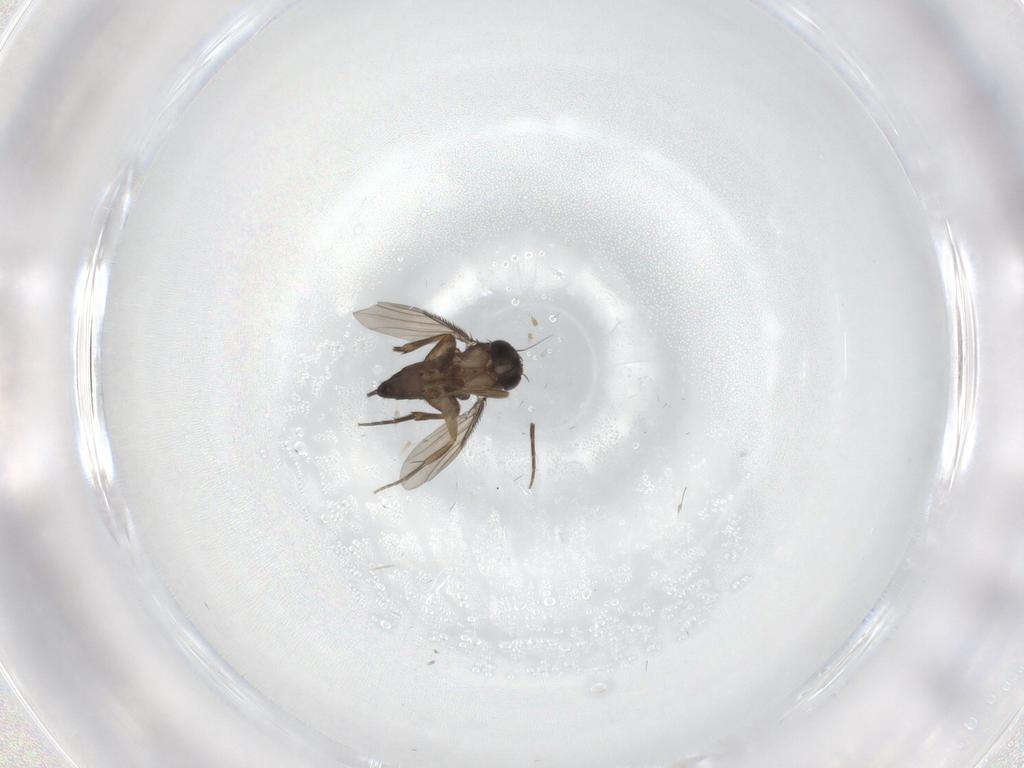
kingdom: Animalia
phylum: Arthropoda
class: Insecta
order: Diptera
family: Phoridae
